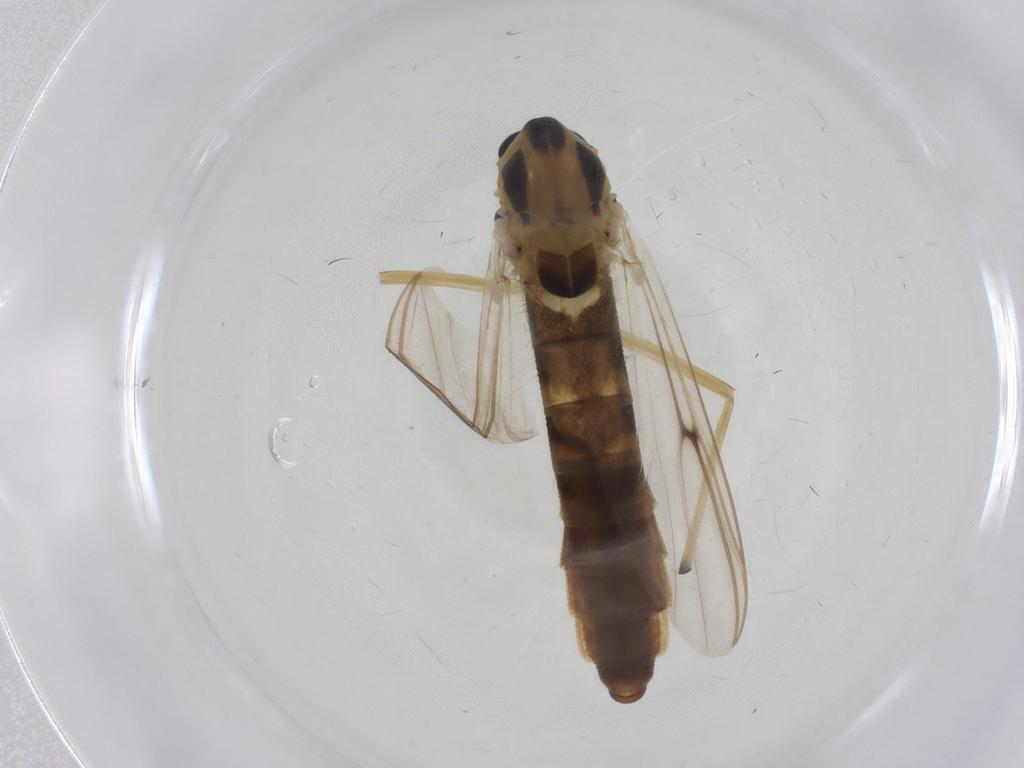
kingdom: Animalia
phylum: Arthropoda
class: Insecta
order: Diptera
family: Chironomidae
